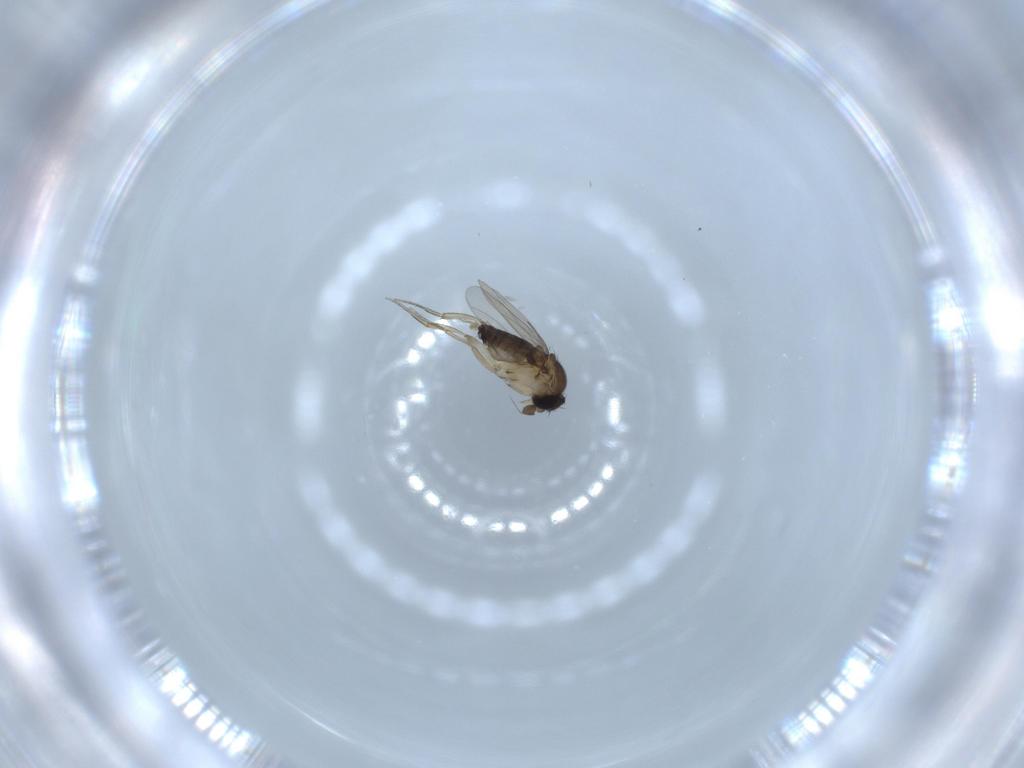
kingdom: Animalia
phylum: Arthropoda
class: Insecta
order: Diptera
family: Phoridae
